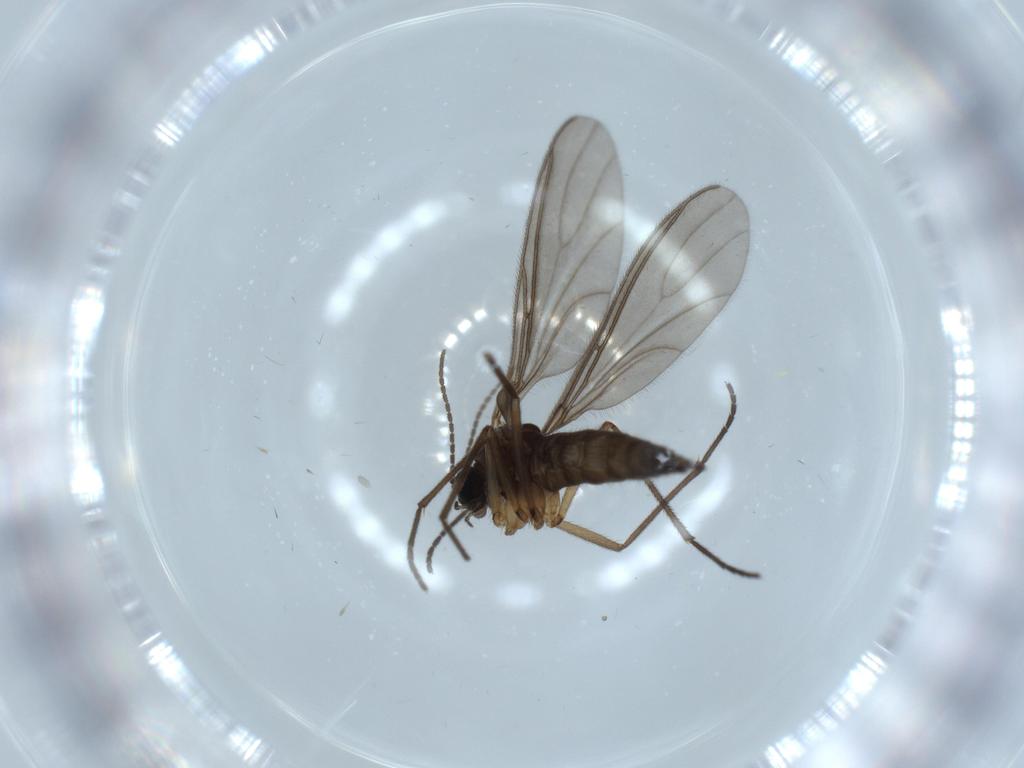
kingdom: Animalia
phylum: Arthropoda
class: Insecta
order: Diptera
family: Sciaridae
